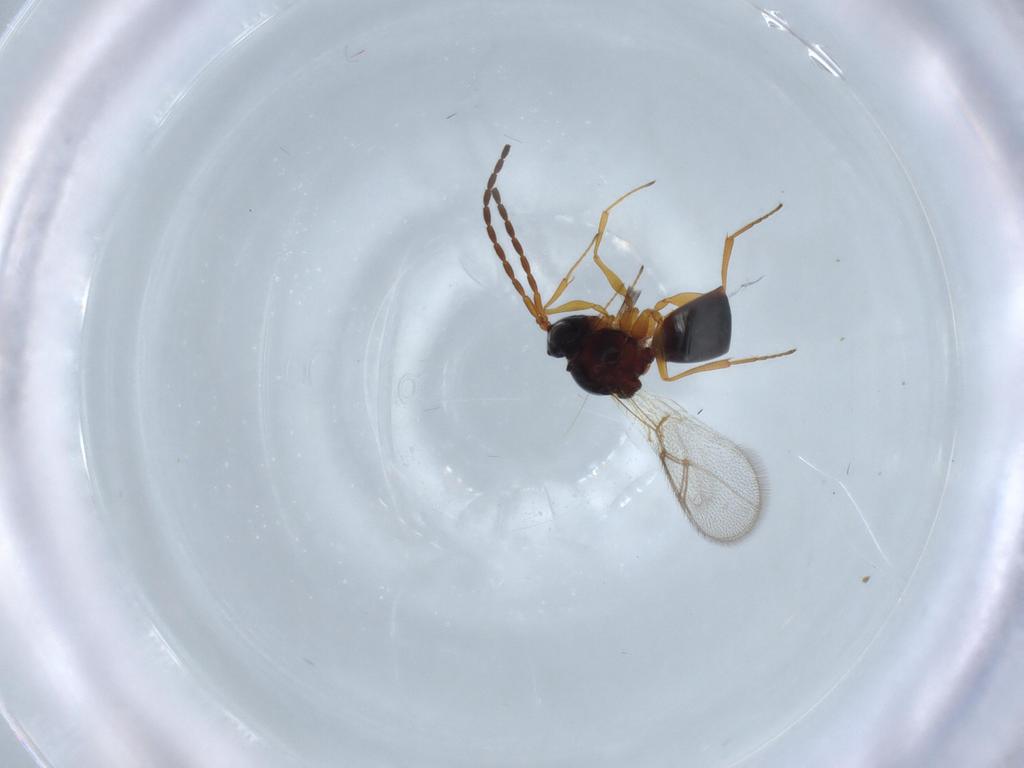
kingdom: Animalia
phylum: Arthropoda
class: Insecta
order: Hymenoptera
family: Figitidae
